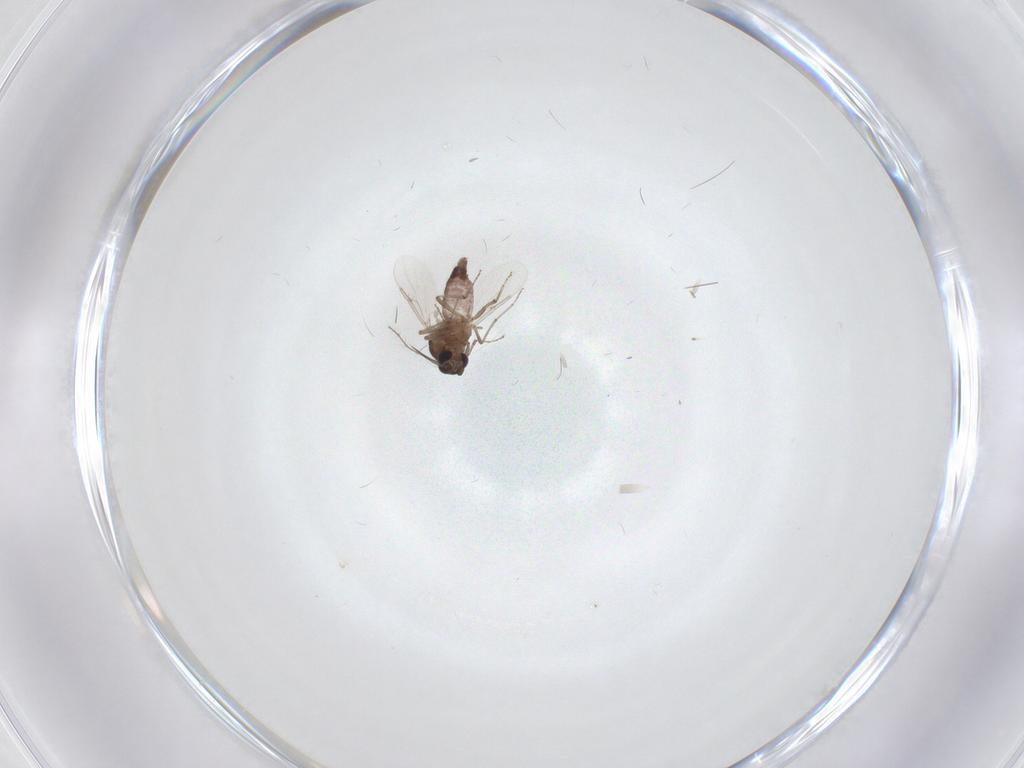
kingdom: Animalia
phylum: Arthropoda
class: Insecta
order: Diptera
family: Ceratopogonidae
